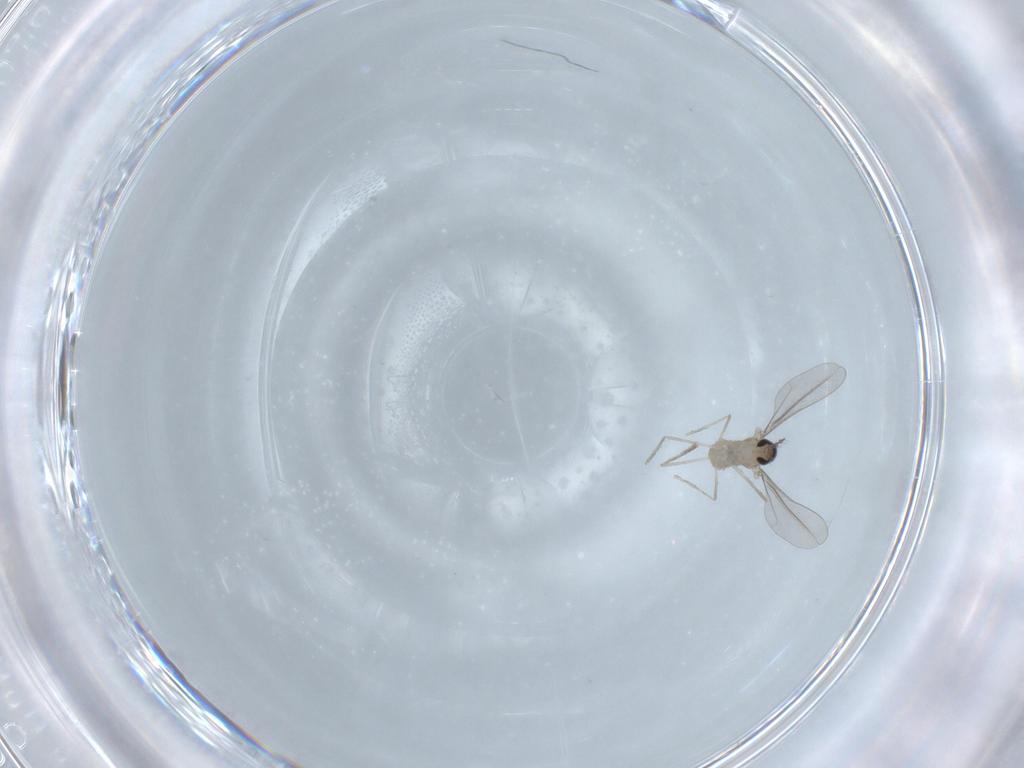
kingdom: Animalia
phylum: Arthropoda
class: Insecta
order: Diptera
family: Cecidomyiidae
